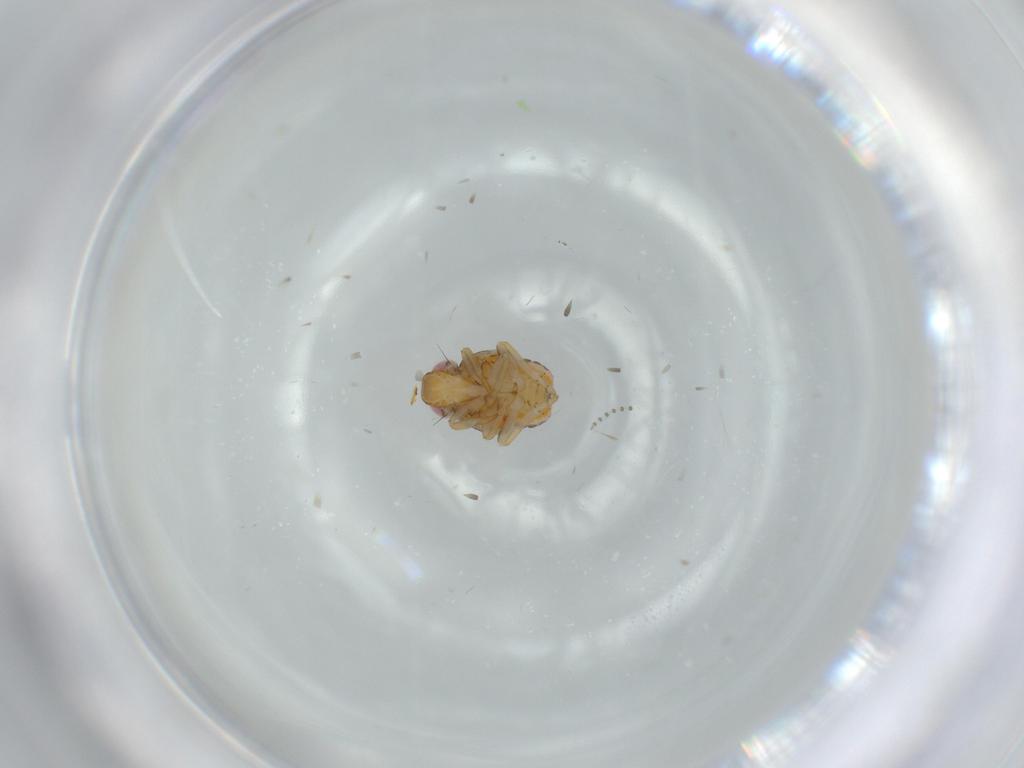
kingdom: Animalia
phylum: Arthropoda
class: Insecta
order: Hemiptera
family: Issidae
